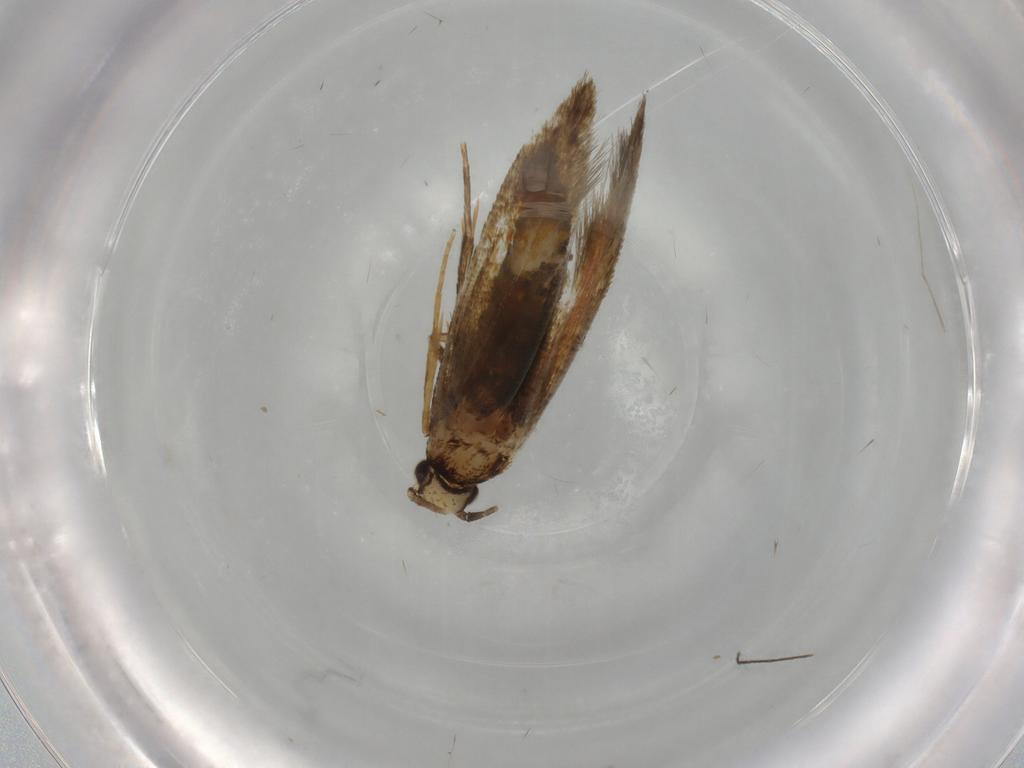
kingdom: Animalia
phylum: Arthropoda
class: Insecta
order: Lepidoptera
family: Tineidae
